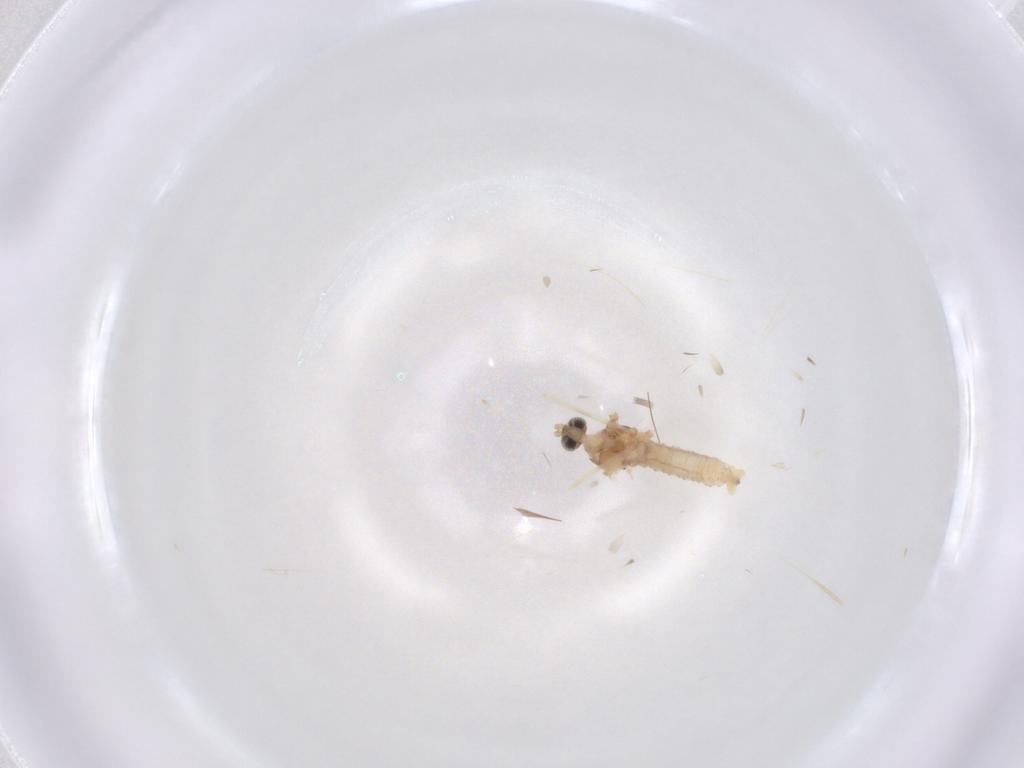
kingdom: Animalia
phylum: Arthropoda
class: Insecta
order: Diptera
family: Cecidomyiidae
